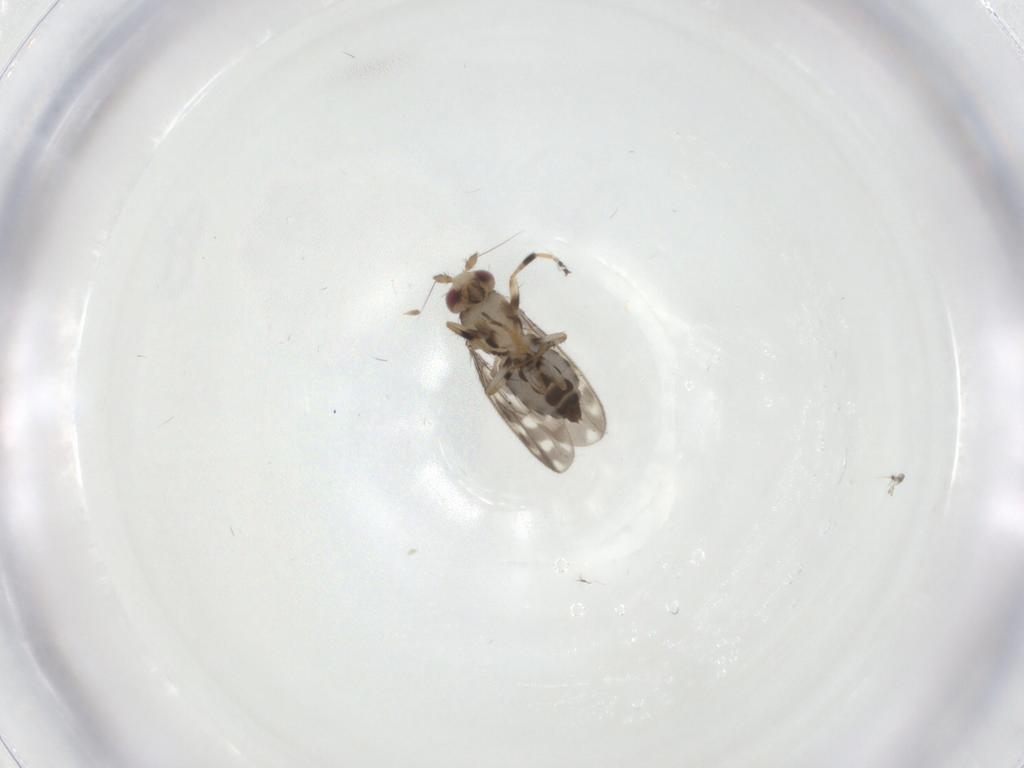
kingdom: Animalia
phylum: Arthropoda
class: Insecta
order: Diptera
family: Sphaeroceridae
